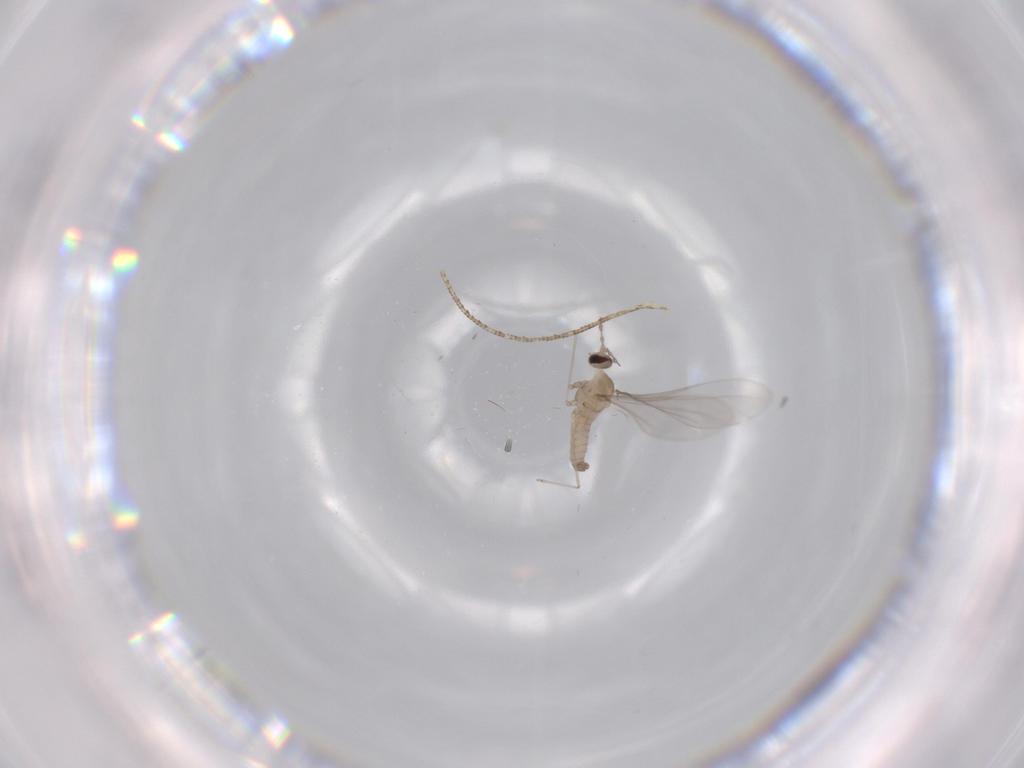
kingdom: Animalia
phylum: Arthropoda
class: Insecta
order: Diptera
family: Cecidomyiidae
